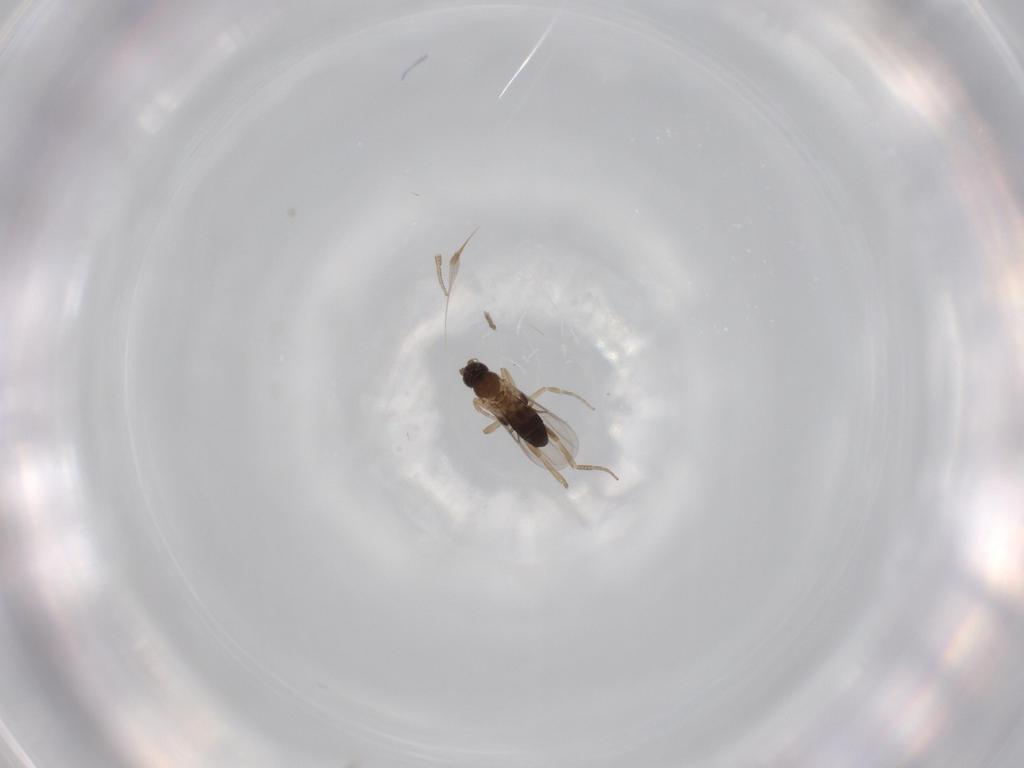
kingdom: Animalia
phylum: Arthropoda
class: Insecta
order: Diptera
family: Phoridae
